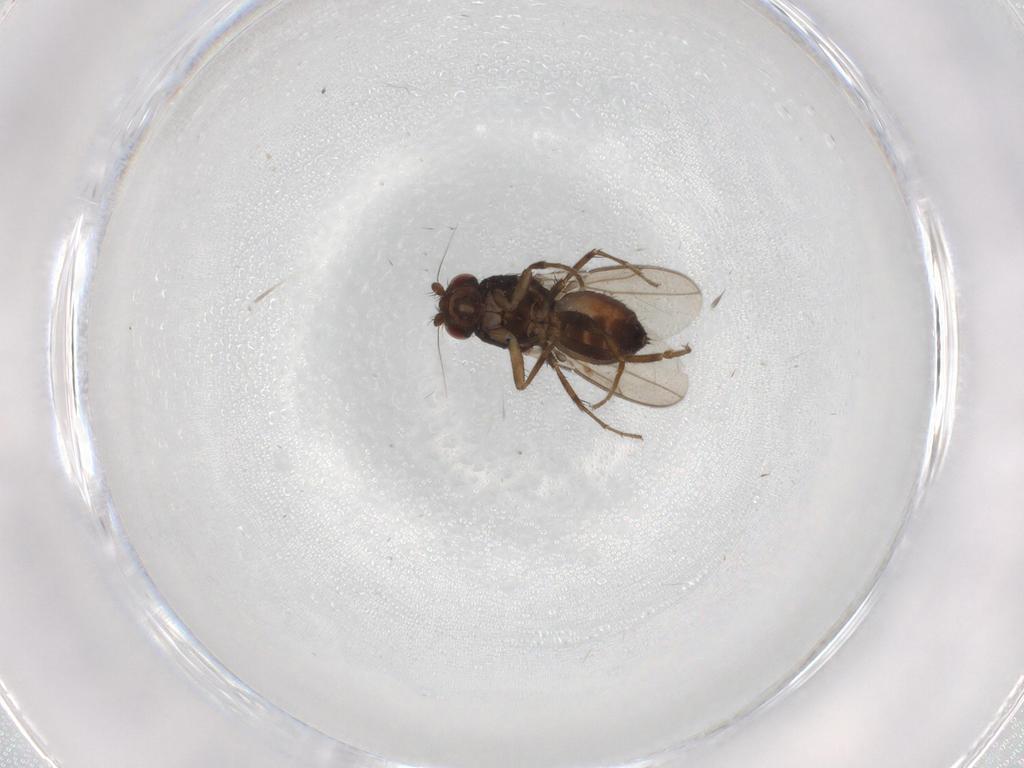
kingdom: Animalia
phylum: Arthropoda
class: Insecta
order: Diptera
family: Sphaeroceridae
